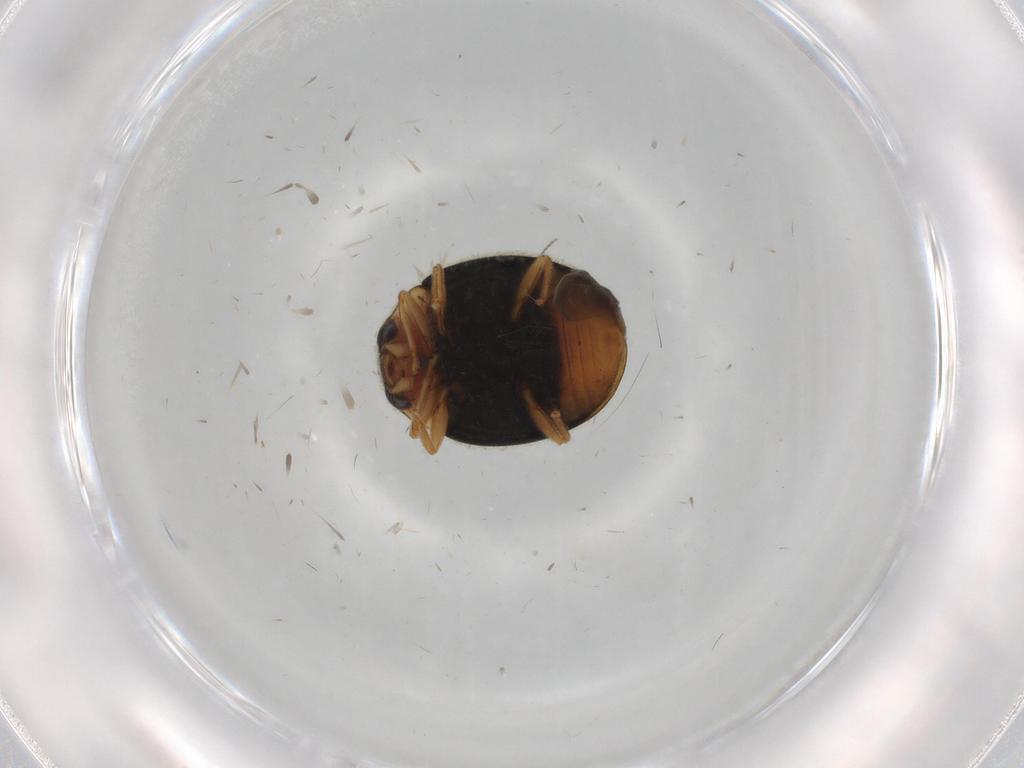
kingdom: Animalia
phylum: Arthropoda
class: Insecta
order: Coleoptera
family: Coccinellidae
